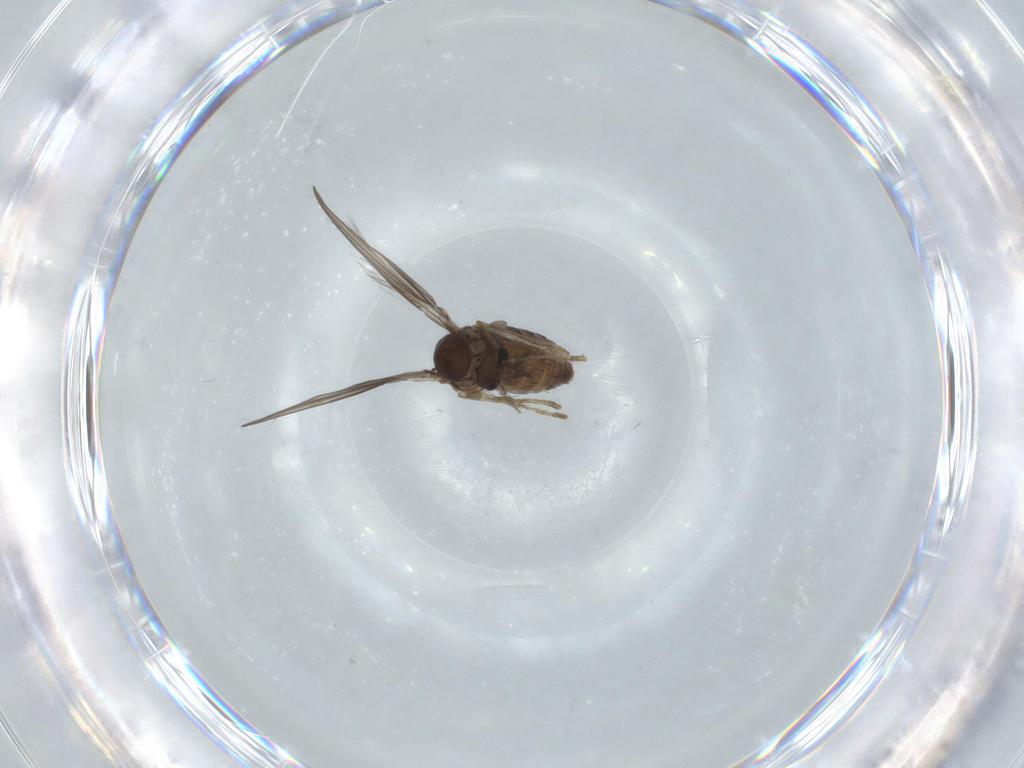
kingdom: Animalia
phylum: Arthropoda
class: Insecta
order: Diptera
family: Psychodidae
